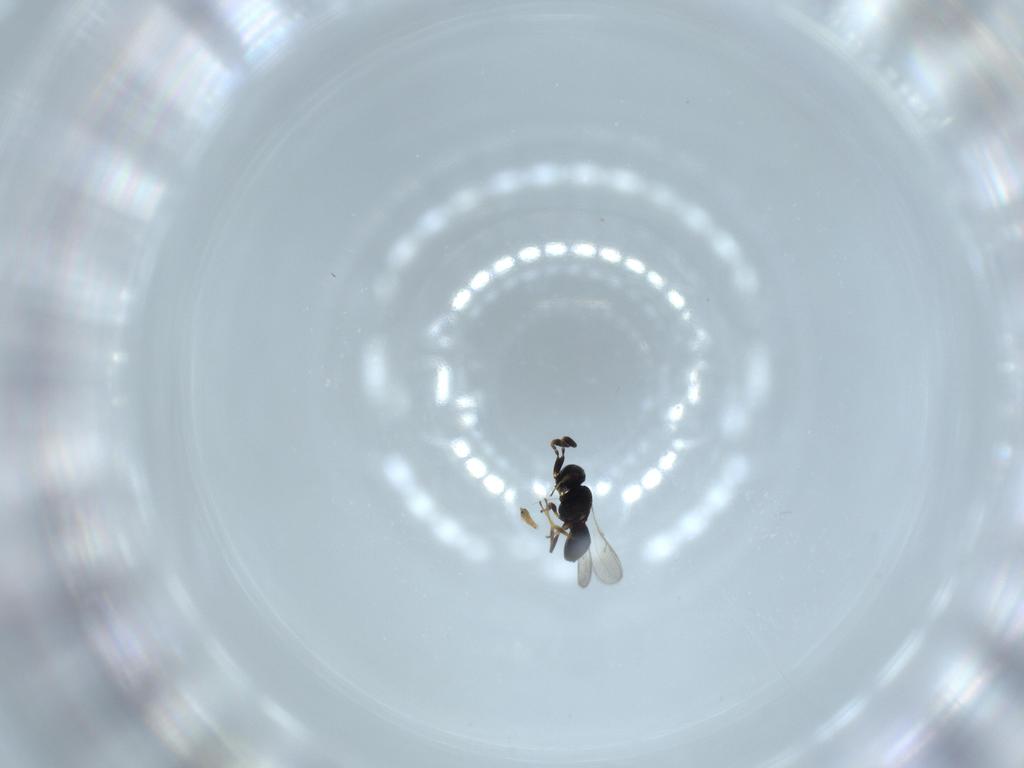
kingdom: Animalia
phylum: Arthropoda
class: Insecta
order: Hymenoptera
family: Scelionidae
